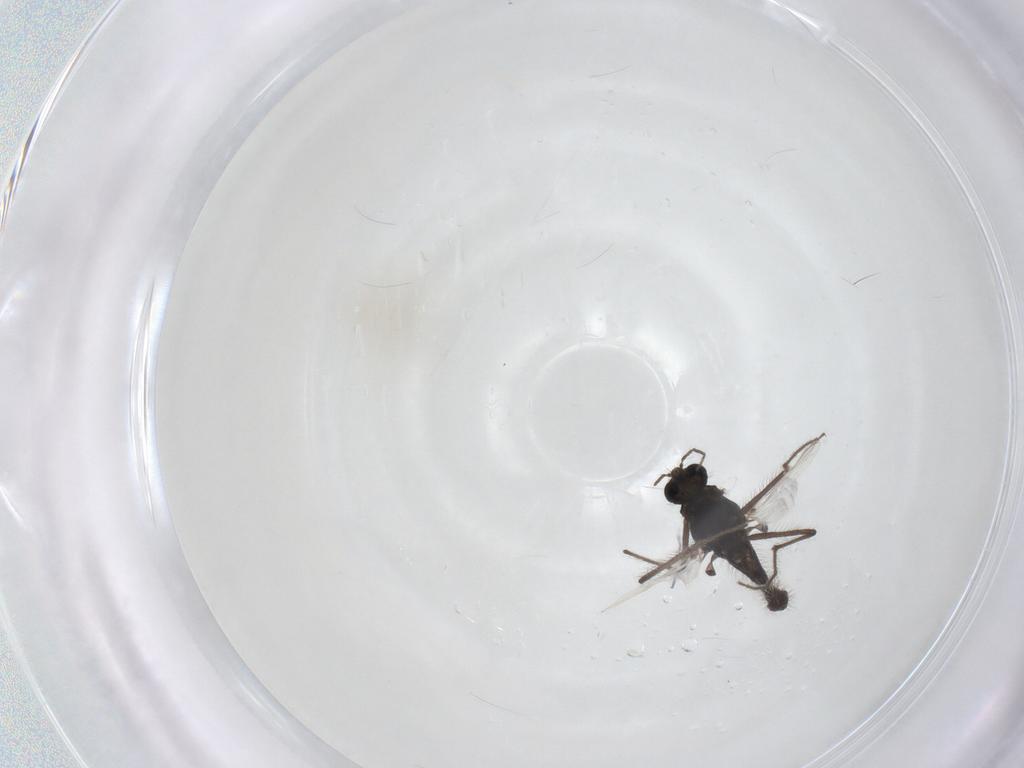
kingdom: Animalia
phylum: Arthropoda
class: Insecta
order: Diptera
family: Chironomidae
